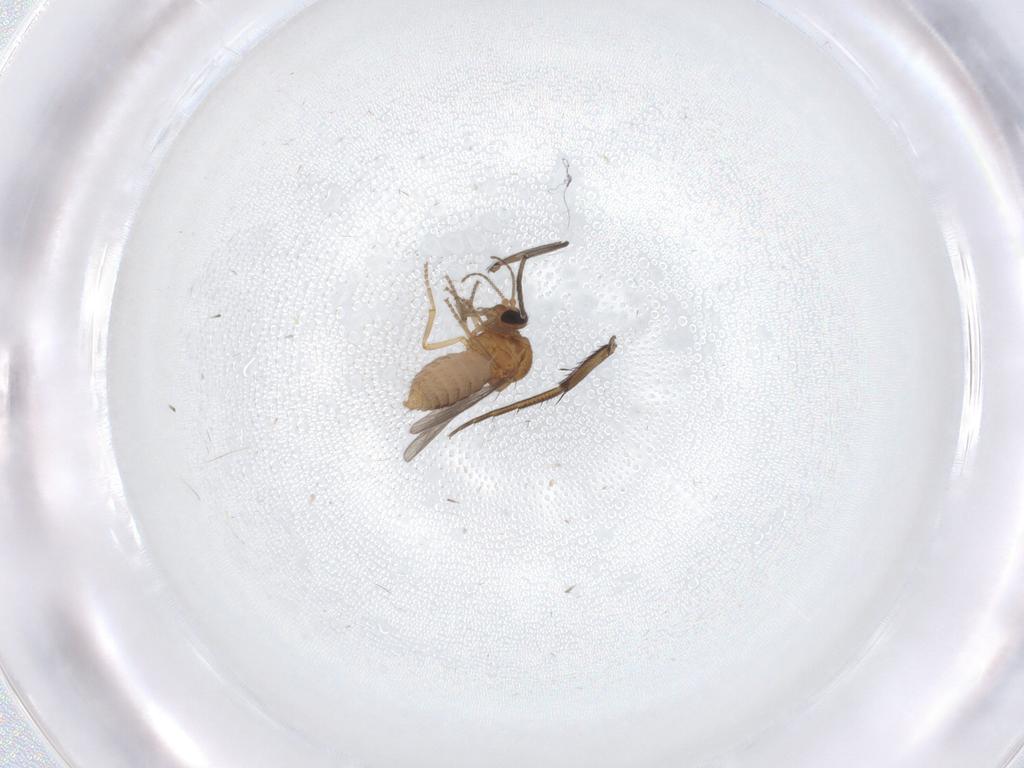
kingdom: Animalia
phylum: Arthropoda
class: Insecta
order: Diptera
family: Ceratopogonidae
